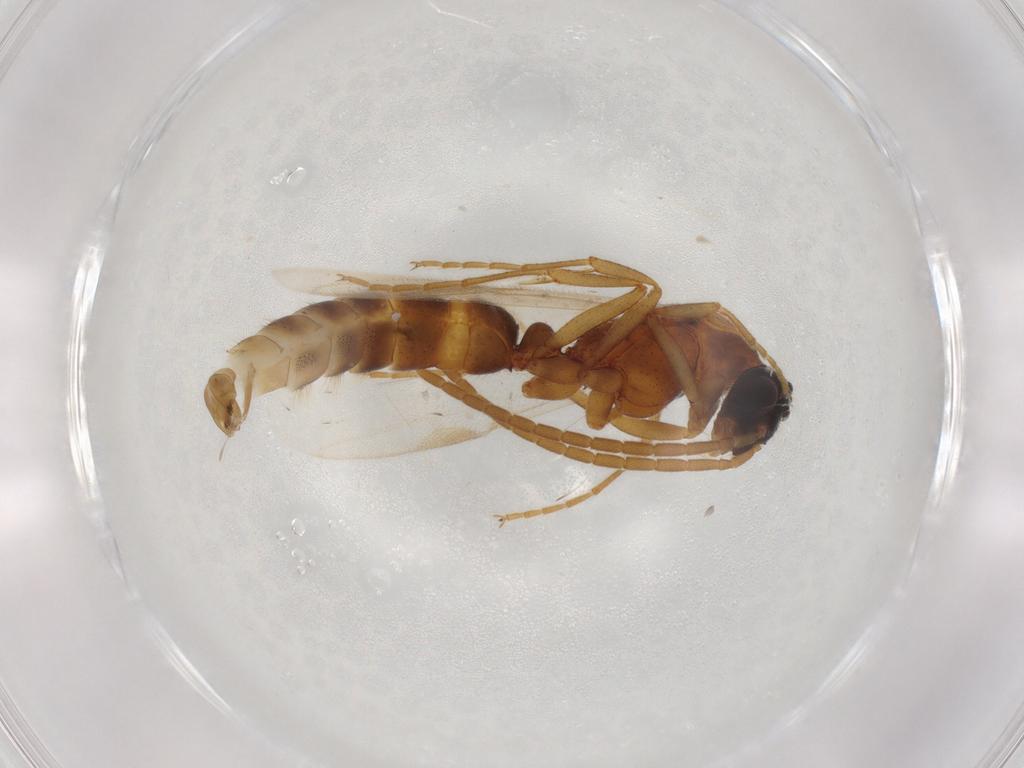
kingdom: Animalia
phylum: Arthropoda
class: Insecta
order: Hymenoptera
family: Formicidae
